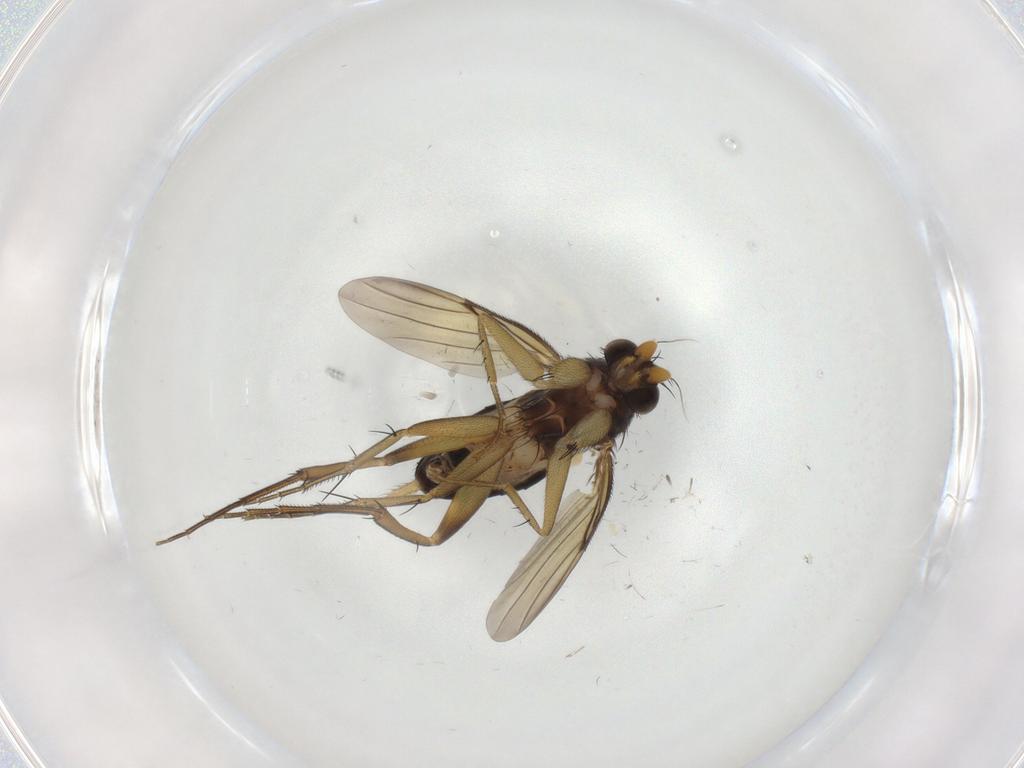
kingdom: Animalia
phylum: Arthropoda
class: Insecta
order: Diptera
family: Phoridae
